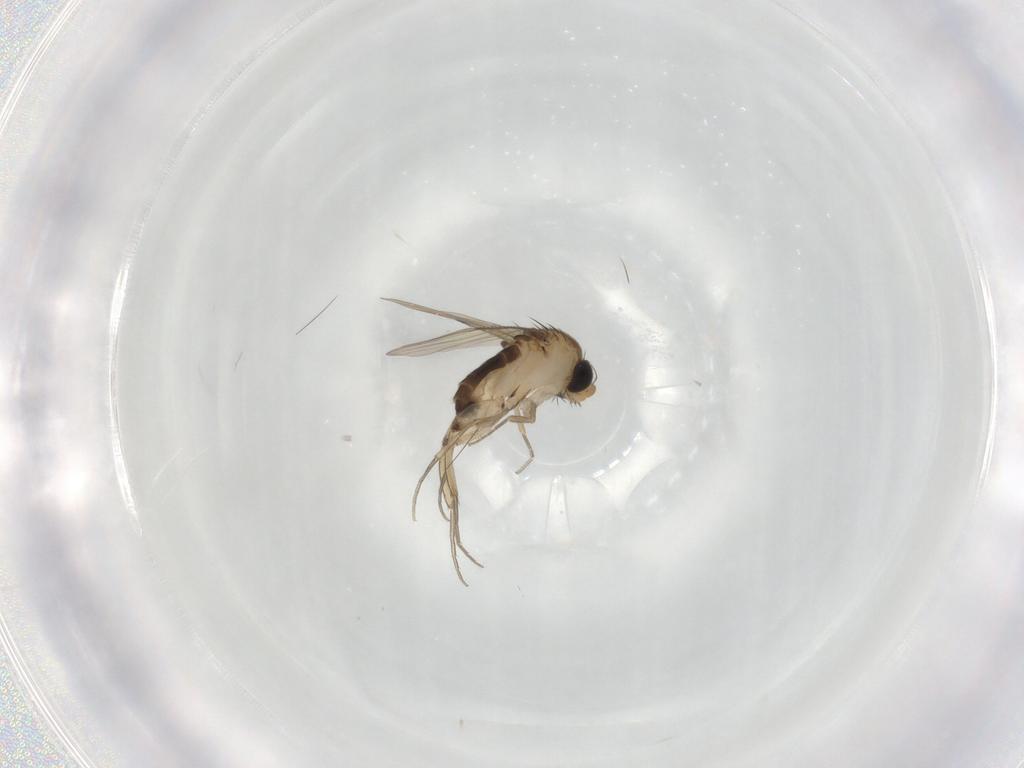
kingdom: Animalia
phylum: Arthropoda
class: Insecta
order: Diptera
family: Phoridae
